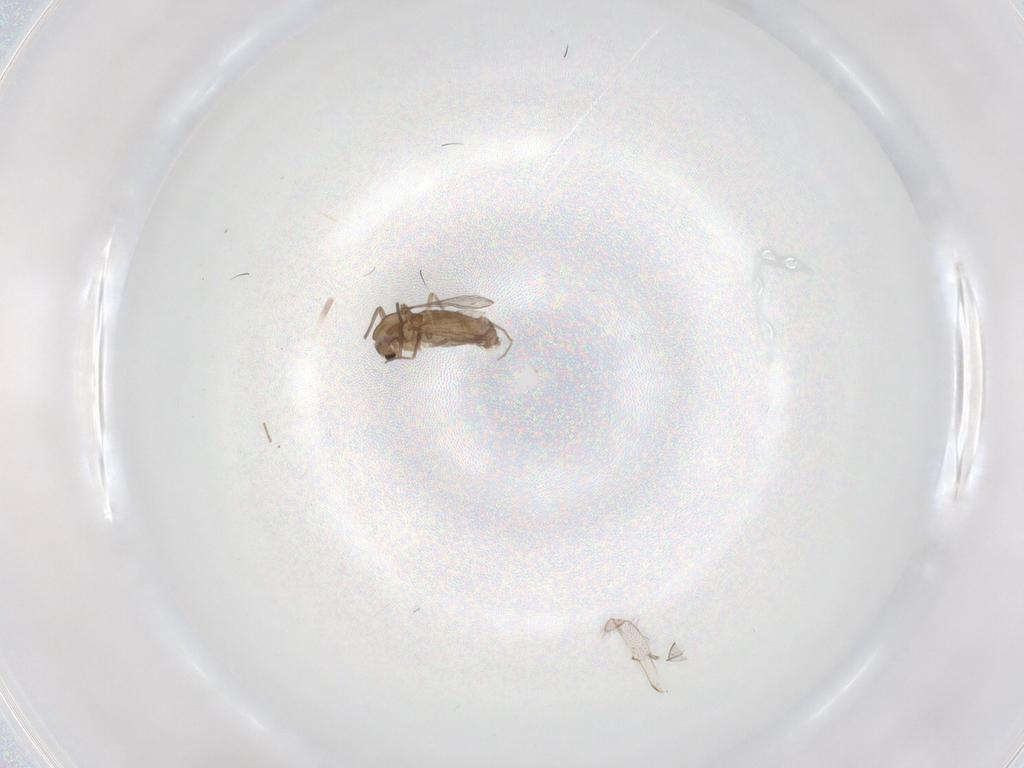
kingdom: Animalia
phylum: Arthropoda
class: Insecta
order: Diptera
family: Chironomidae
